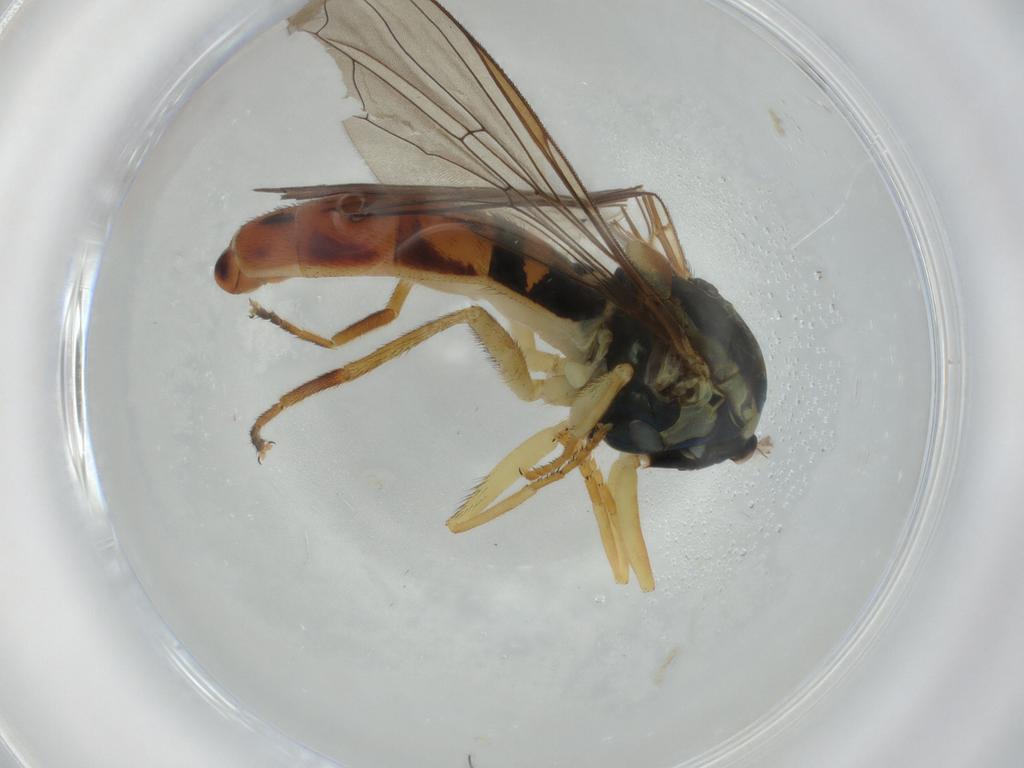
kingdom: Animalia
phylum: Arthropoda
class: Insecta
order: Diptera
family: Syrphidae
